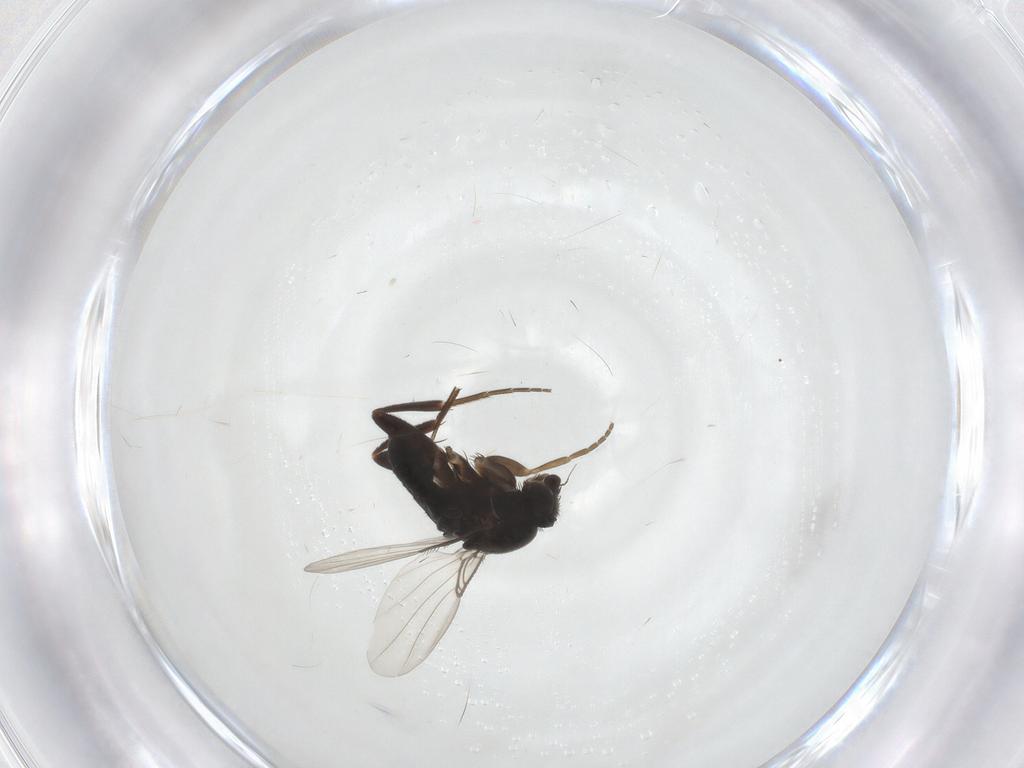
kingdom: Animalia
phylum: Arthropoda
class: Insecta
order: Diptera
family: Phoridae
